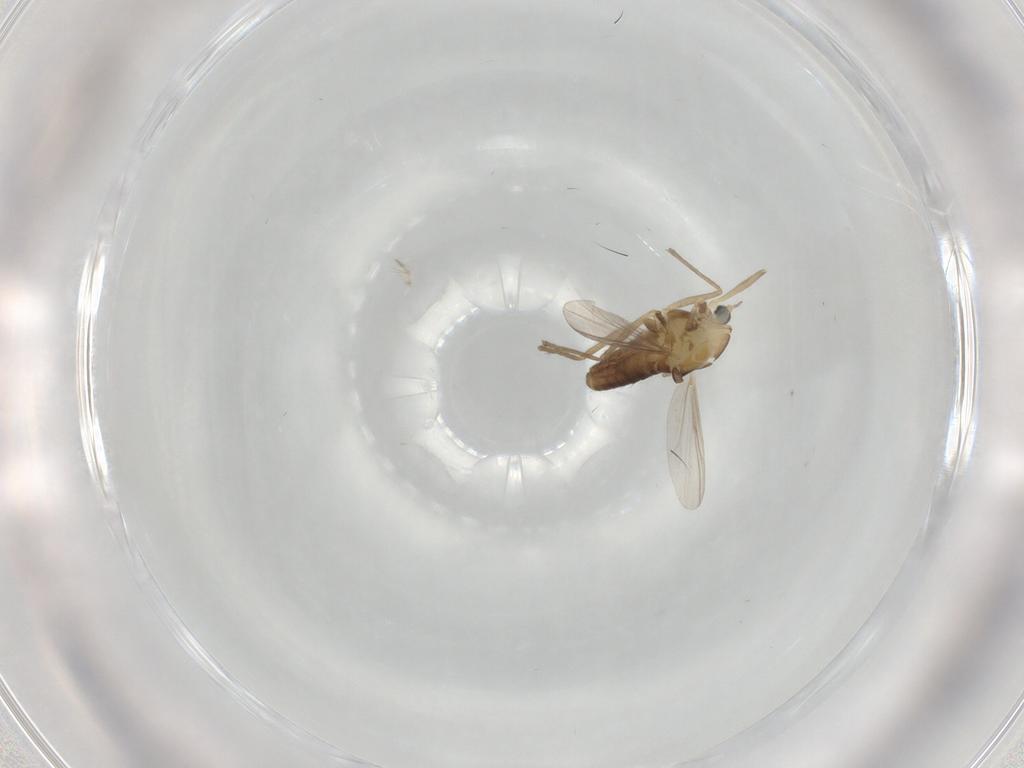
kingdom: Animalia
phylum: Arthropoda
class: Insecta
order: Diptera
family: Chironomidae
